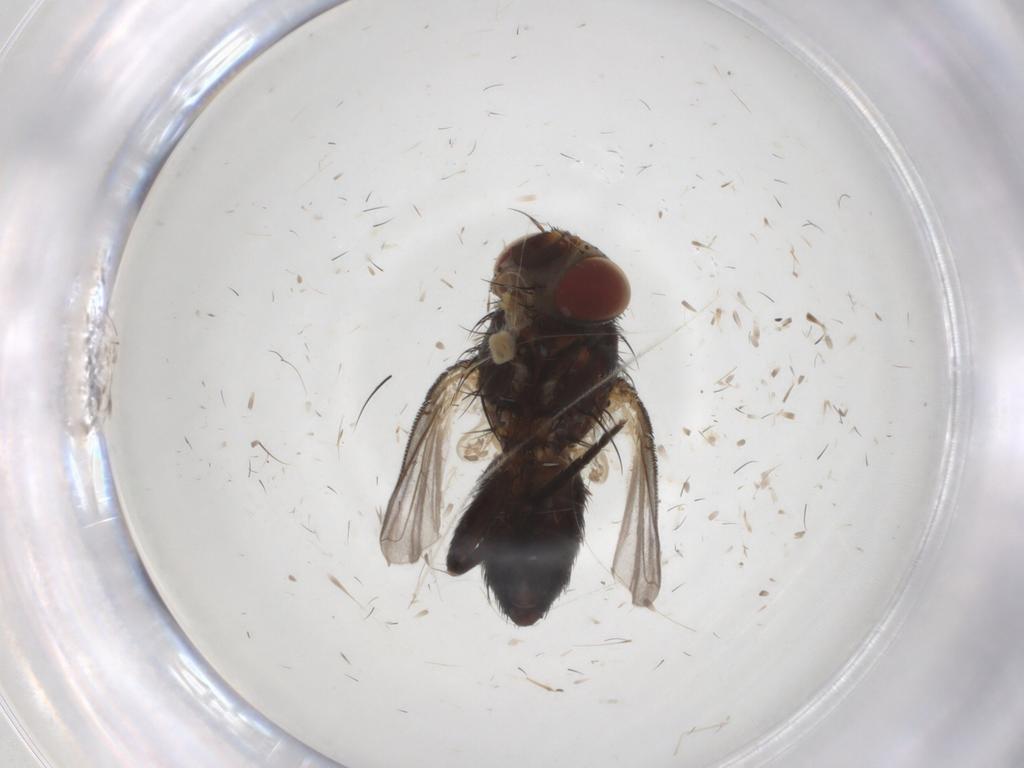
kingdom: Animalia
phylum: Arthropoda
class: Insecta
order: Diptera
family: Tachinidae
